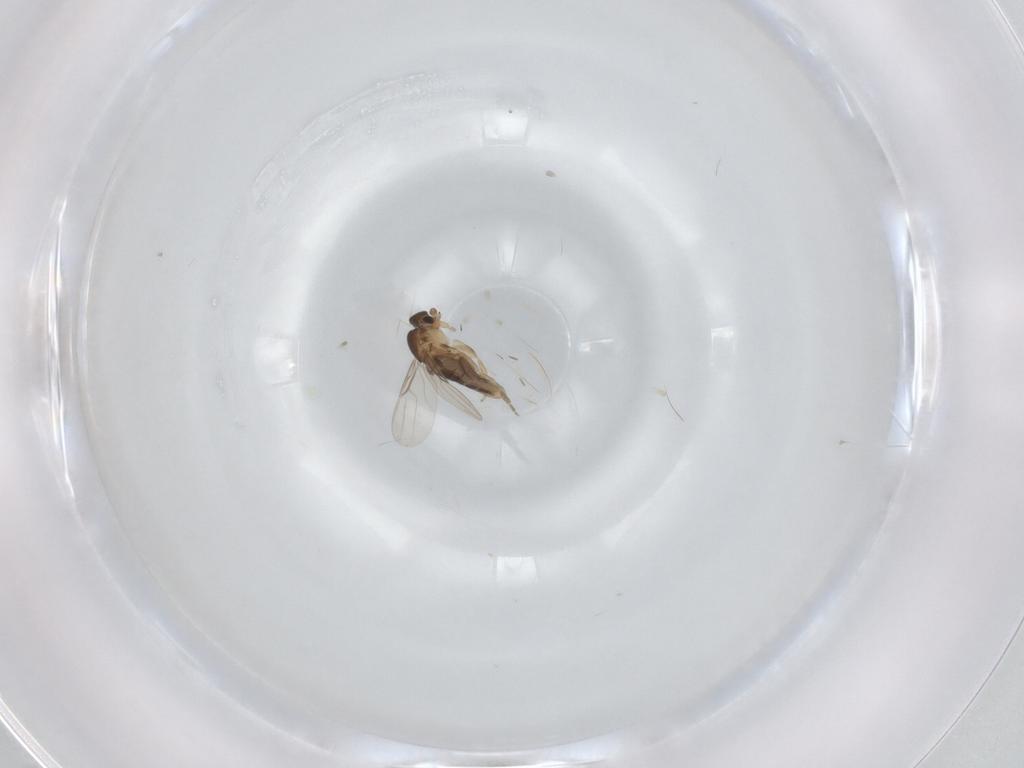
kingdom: Animalia
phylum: Arthropoda
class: Insecta
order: Diptera
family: Phoridae
